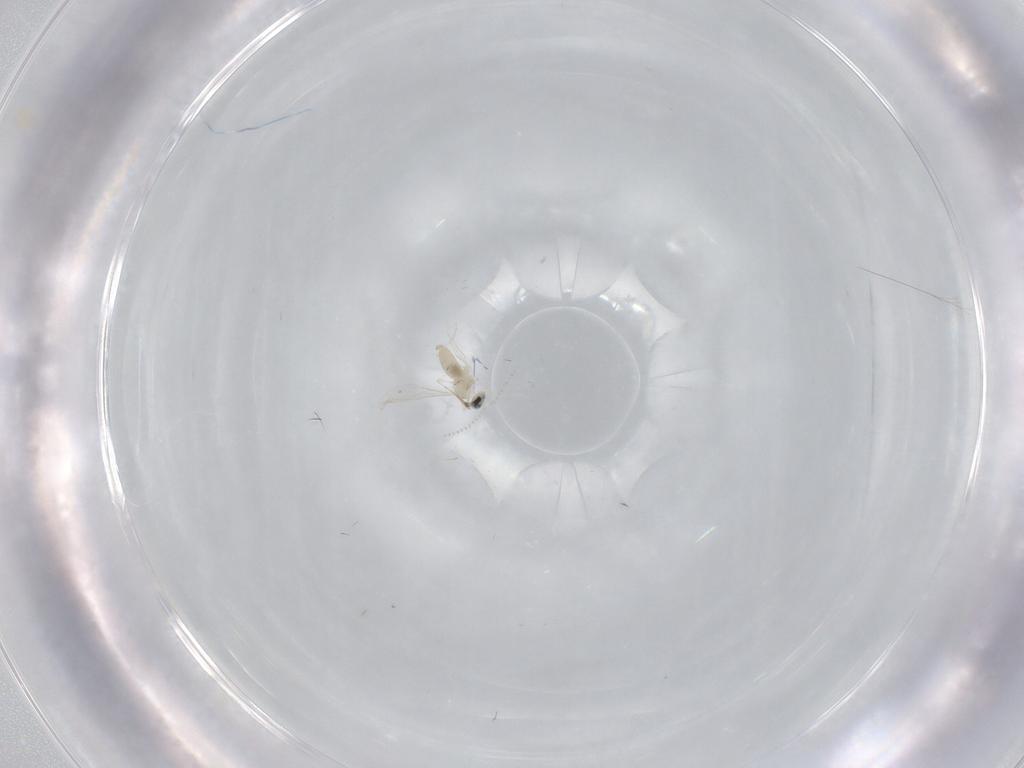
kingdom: Animalia
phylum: Arthropoda
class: Insecta
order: Diptera
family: Cecidomyiidae
